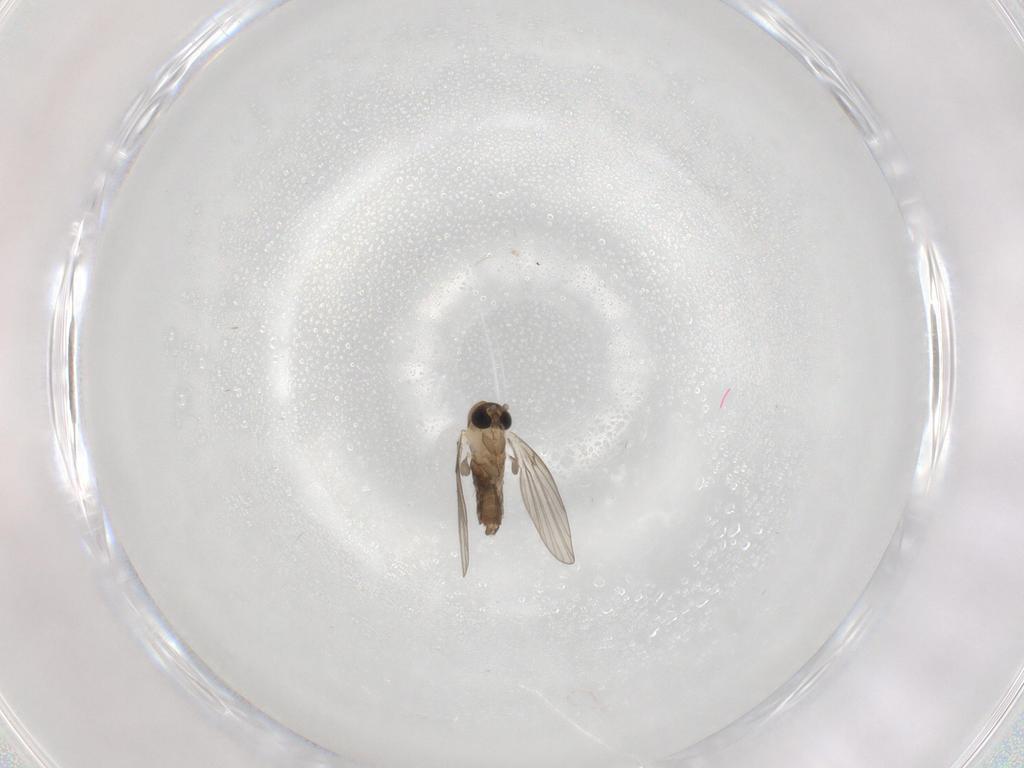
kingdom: Animalia
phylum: Arthropoda
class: Insecta
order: Diptera
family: Psychodidae
